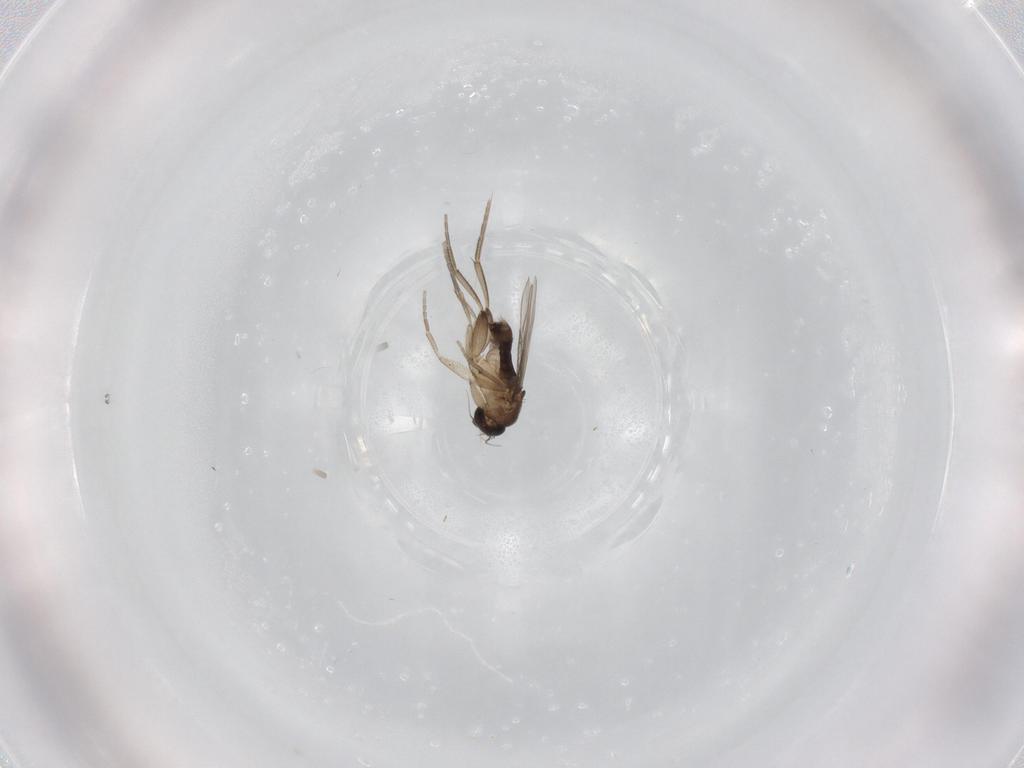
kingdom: Animalia
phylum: Arthropoda
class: Insecta
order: Diptera
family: Phoridae
